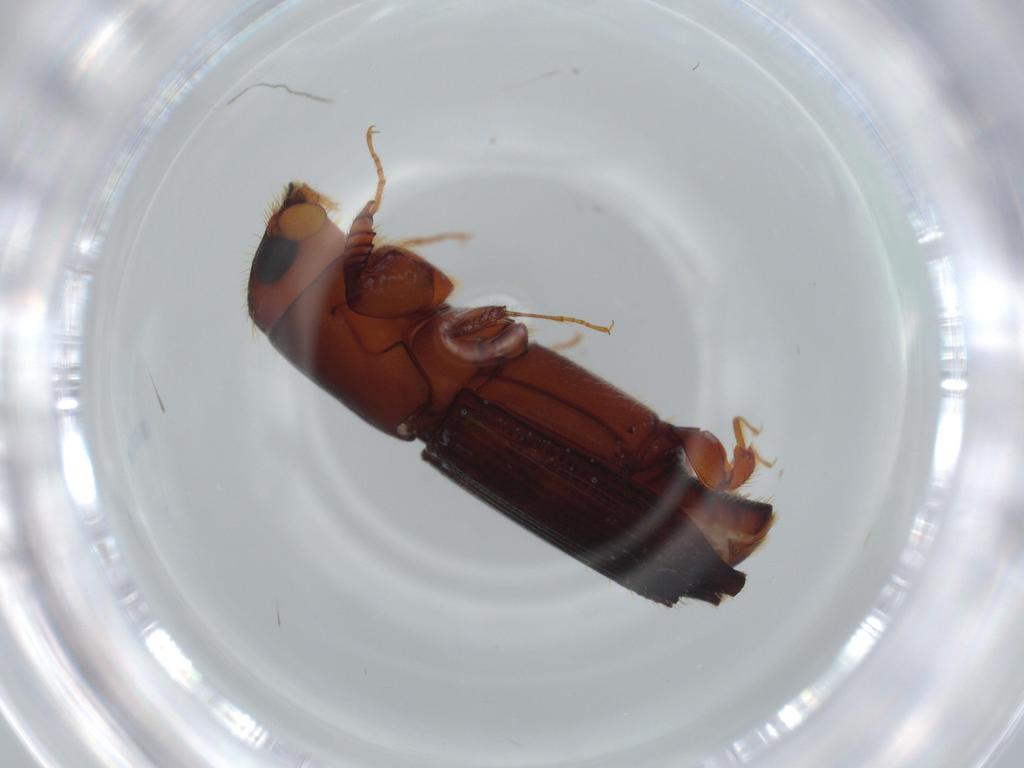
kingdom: Animalia
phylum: Arthropoda
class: Insecta
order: Coleoptera
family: Curculionidae
